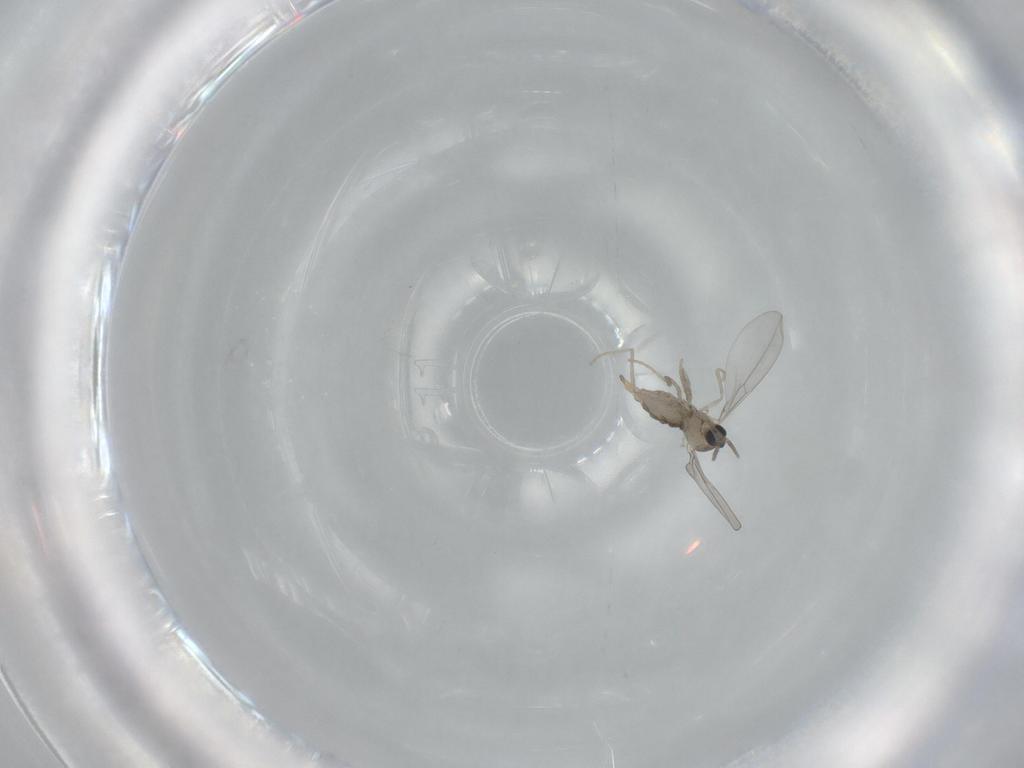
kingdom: Animalia
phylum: Arthropoda
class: Insecta
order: Diptera
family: Cecidomyiidae
